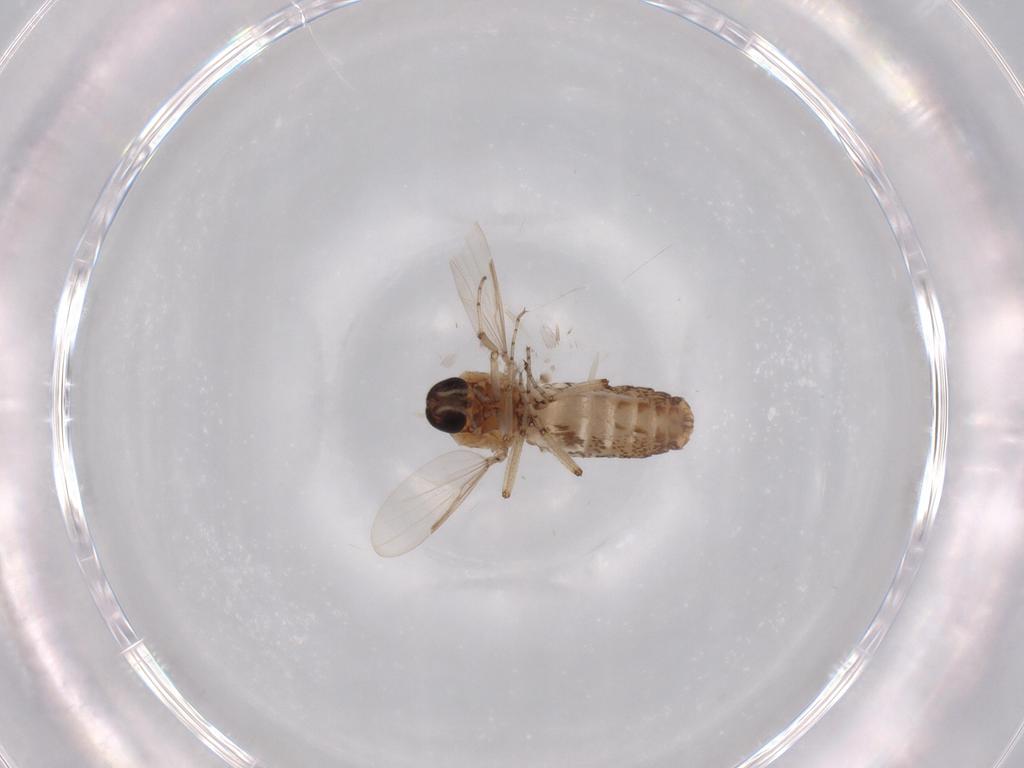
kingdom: Animalia
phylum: Arthropoda
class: Insecta
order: Diptera
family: Ceratopogonidae
